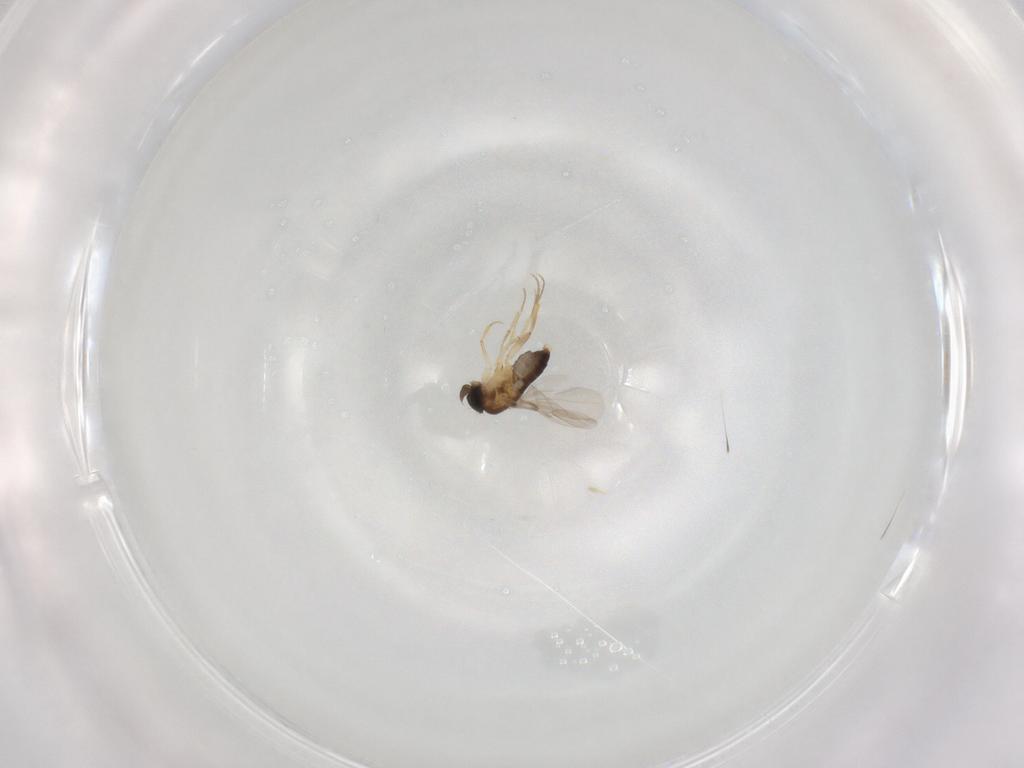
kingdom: Animalia
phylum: Arthropoda
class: Insecta
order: Diptera
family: Phoridae
